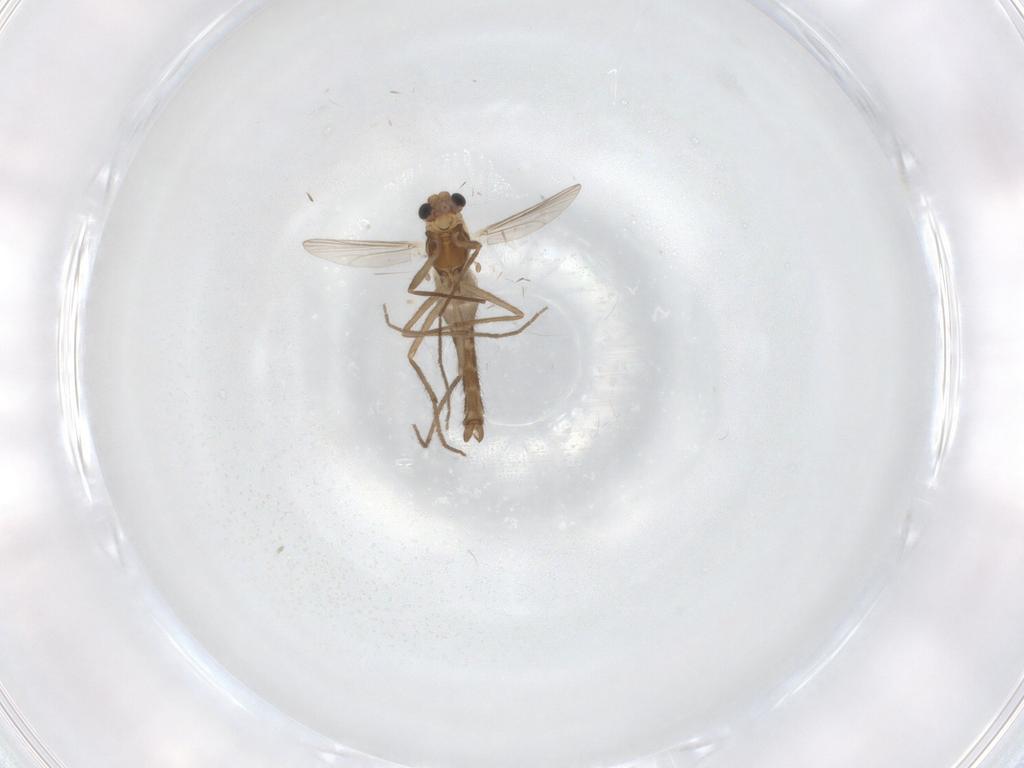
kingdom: Animalia
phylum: Arthropoda
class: Insecta
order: Diptera
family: Chironomidae
